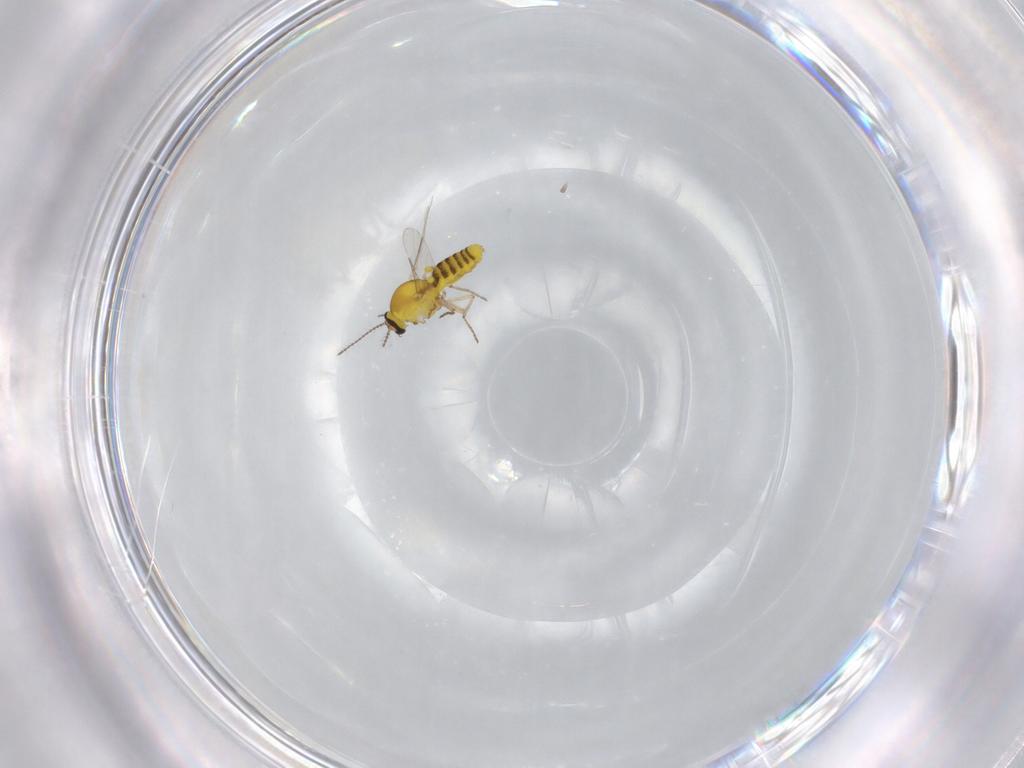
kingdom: Animalia
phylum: Arthropoda
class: Insecta
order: Diptera
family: Ceratopogonidae
